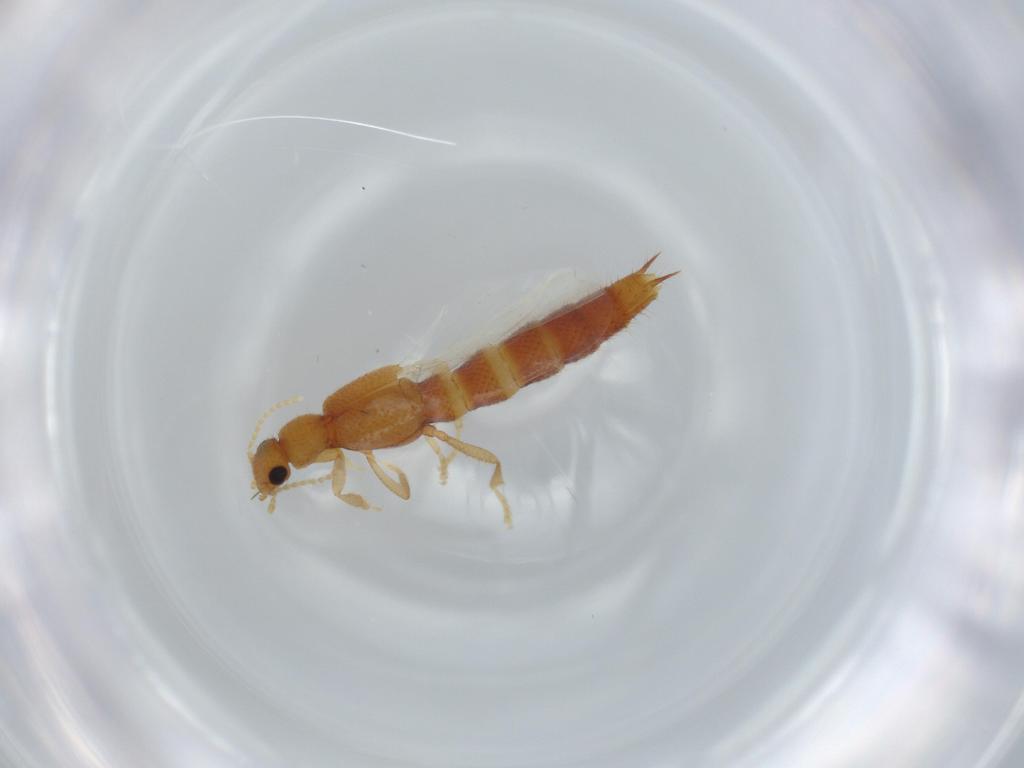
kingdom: Animalia
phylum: Arthropoda
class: Insecta
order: Coleoptera
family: Staphylinidae
